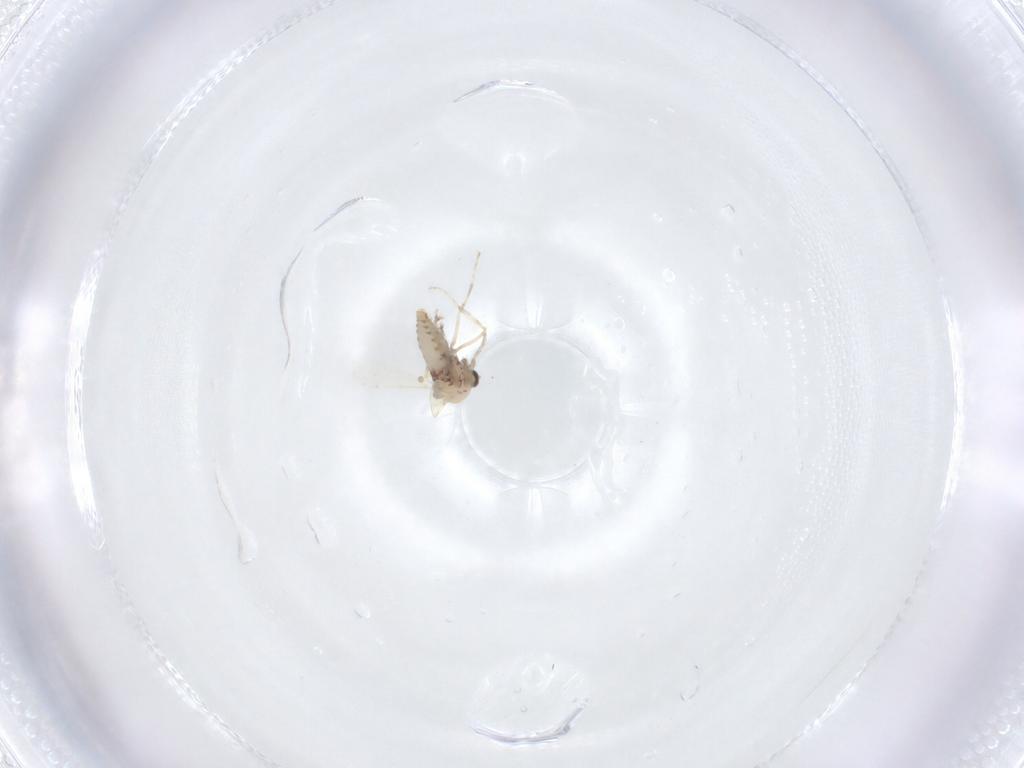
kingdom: Animalia
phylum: Arthropoda
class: Insecta
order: Diptera
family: Ceratopogonidae
